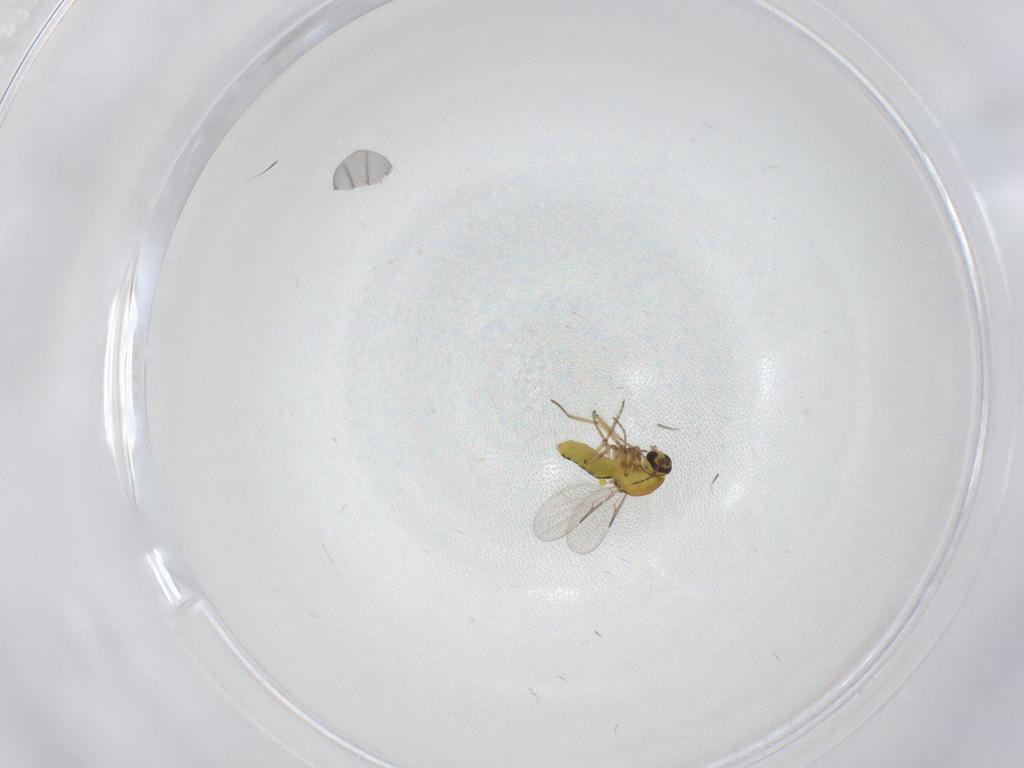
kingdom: Animalia
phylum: Arthropoda
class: Insecta
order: Diptera
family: Ceratopogonidae
